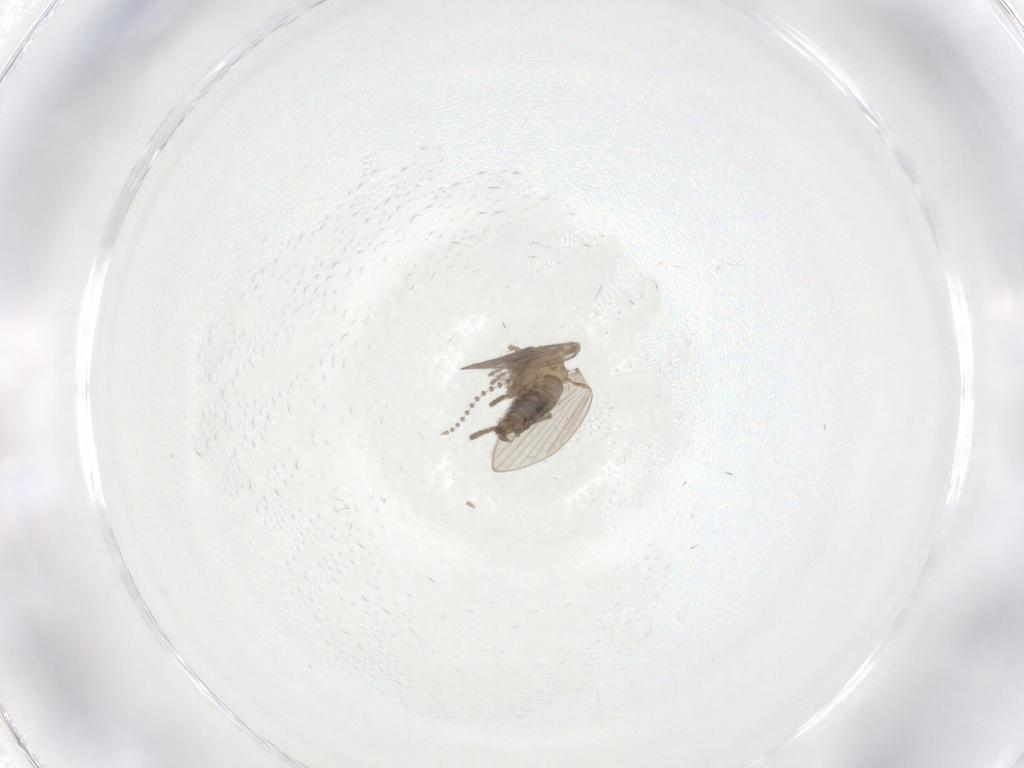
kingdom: Animalia
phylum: Arthropoda
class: Insecta
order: Diptera
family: Psychodidae
